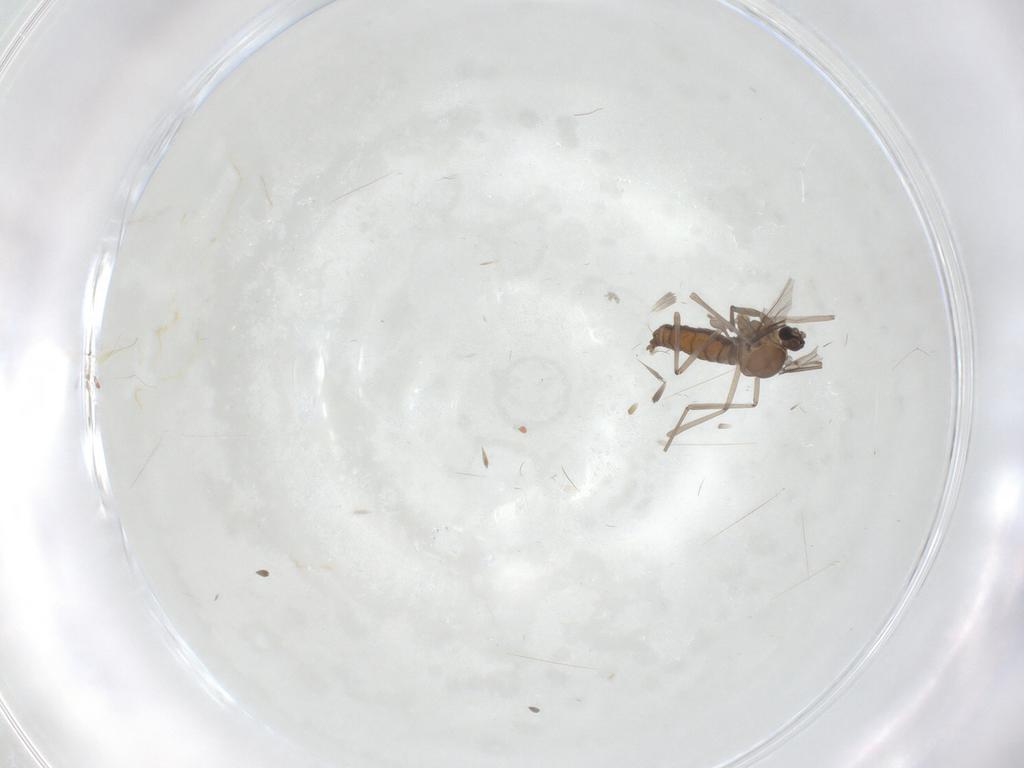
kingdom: Animalia
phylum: Arthropoda
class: Insecta
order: Diptera
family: Cecidomyiidae
